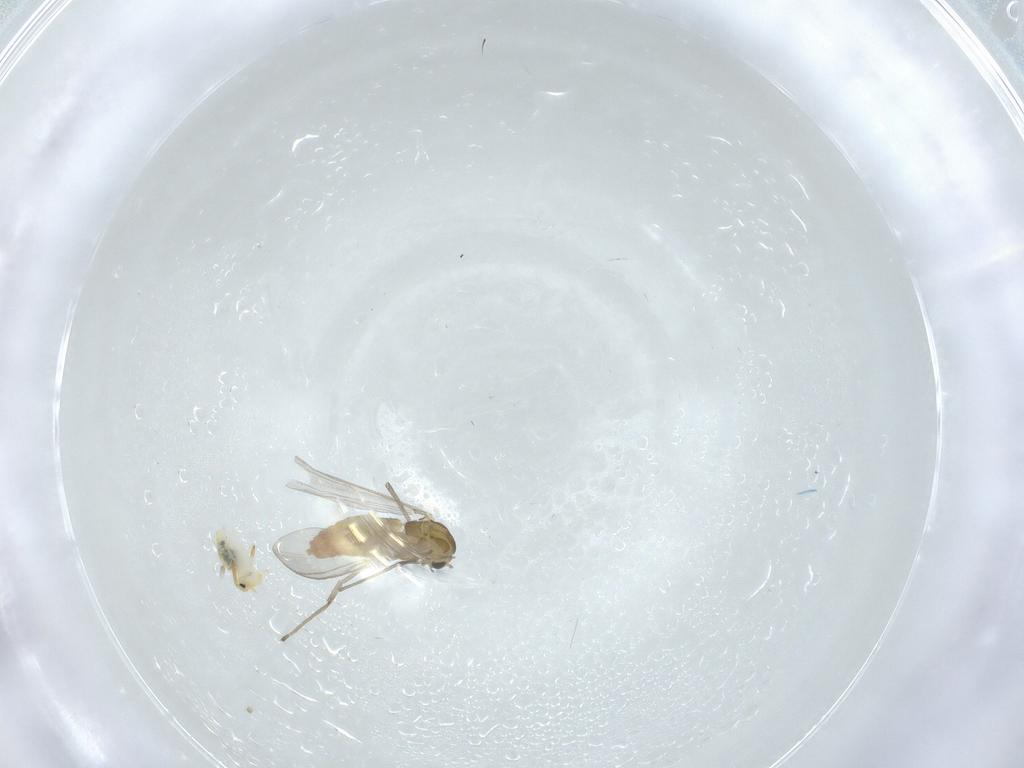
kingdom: Animalia
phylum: Arthropoda
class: Insecta
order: Diptera
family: Chironomidae
